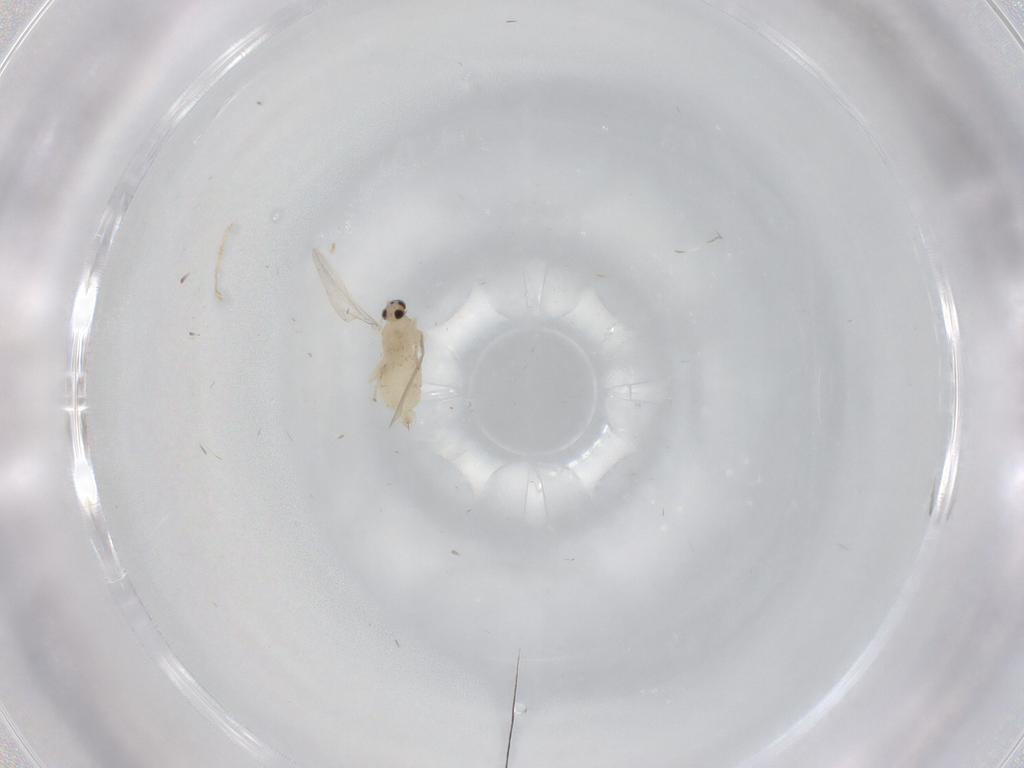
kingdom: Animalia
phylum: Arthropoda
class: Insecta
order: Diptera
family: Cecidomyiidae
